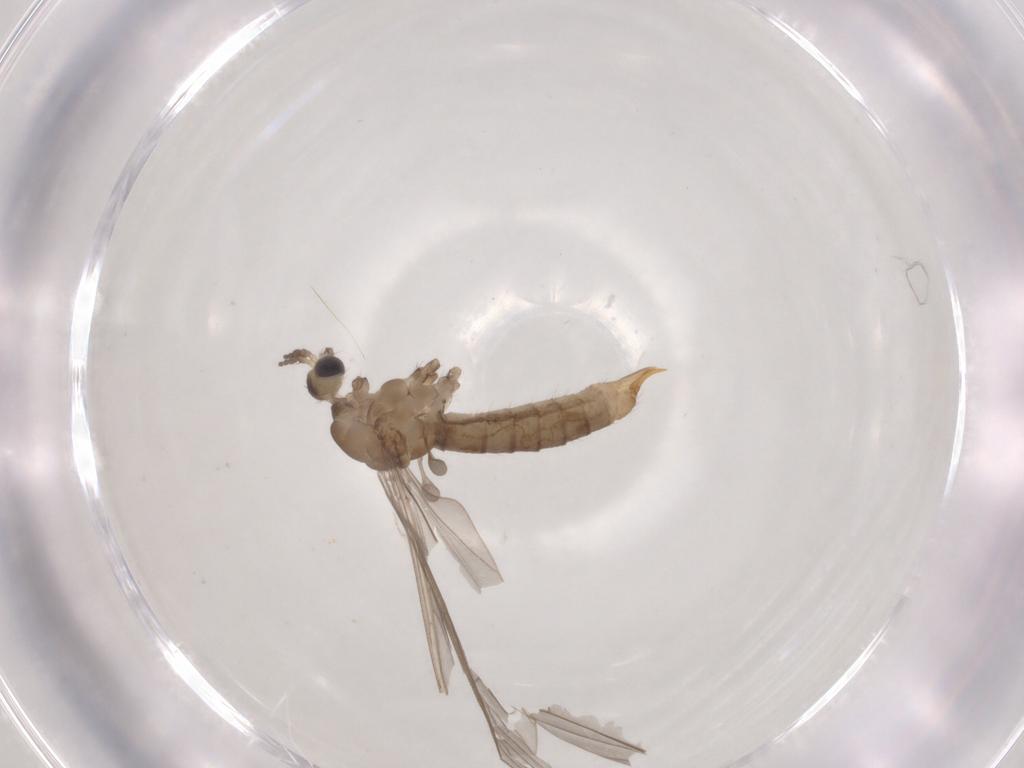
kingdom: Animalia
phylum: Arthropoda
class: Insecta
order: Diptera
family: Limoniidae
